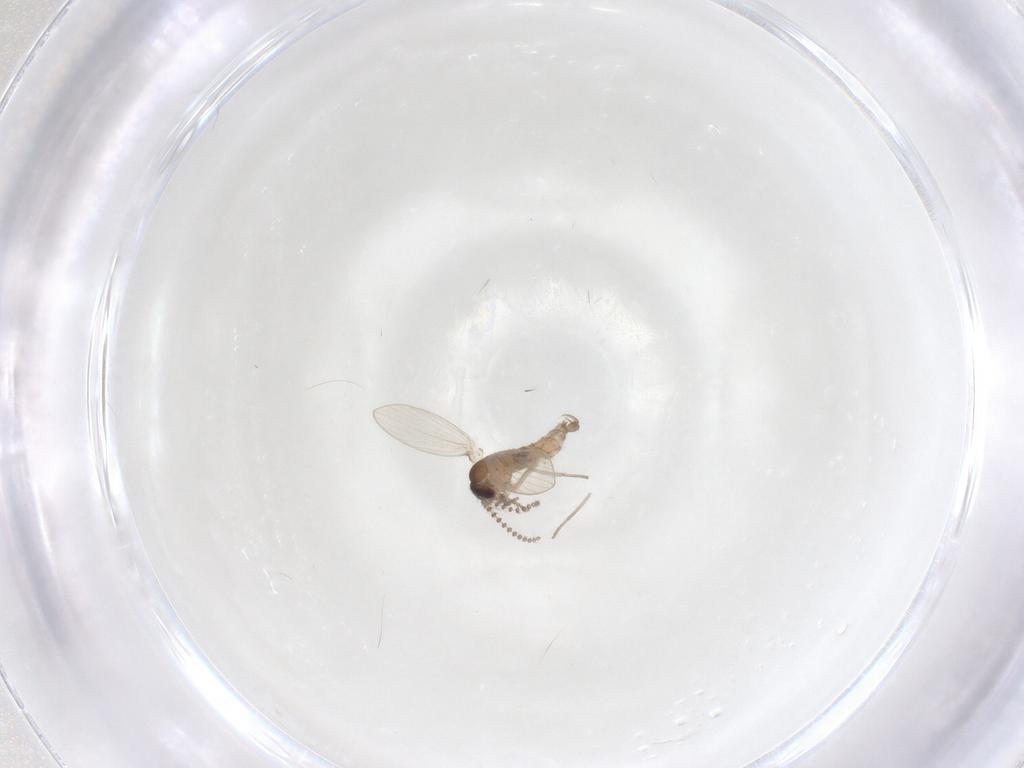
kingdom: Animalia
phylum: Arthropoda
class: Insecta
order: Diptera
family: Psychodidae
